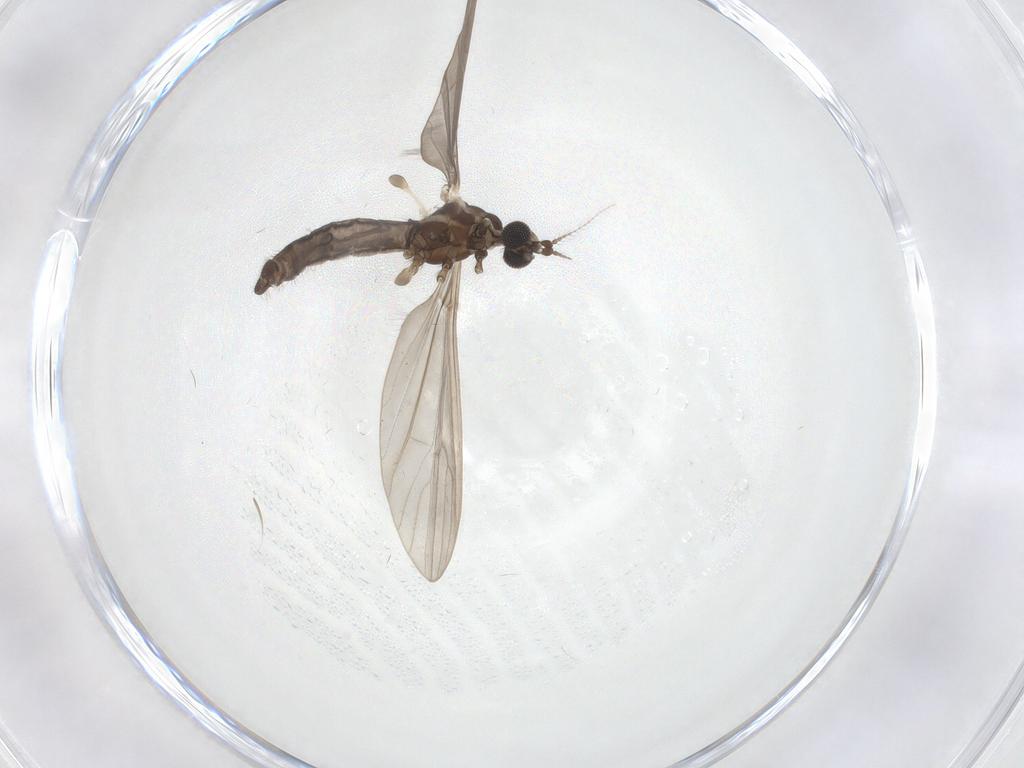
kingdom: Animalia
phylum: Arthropoda
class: Insecta
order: Diptera
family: Limoniidae
